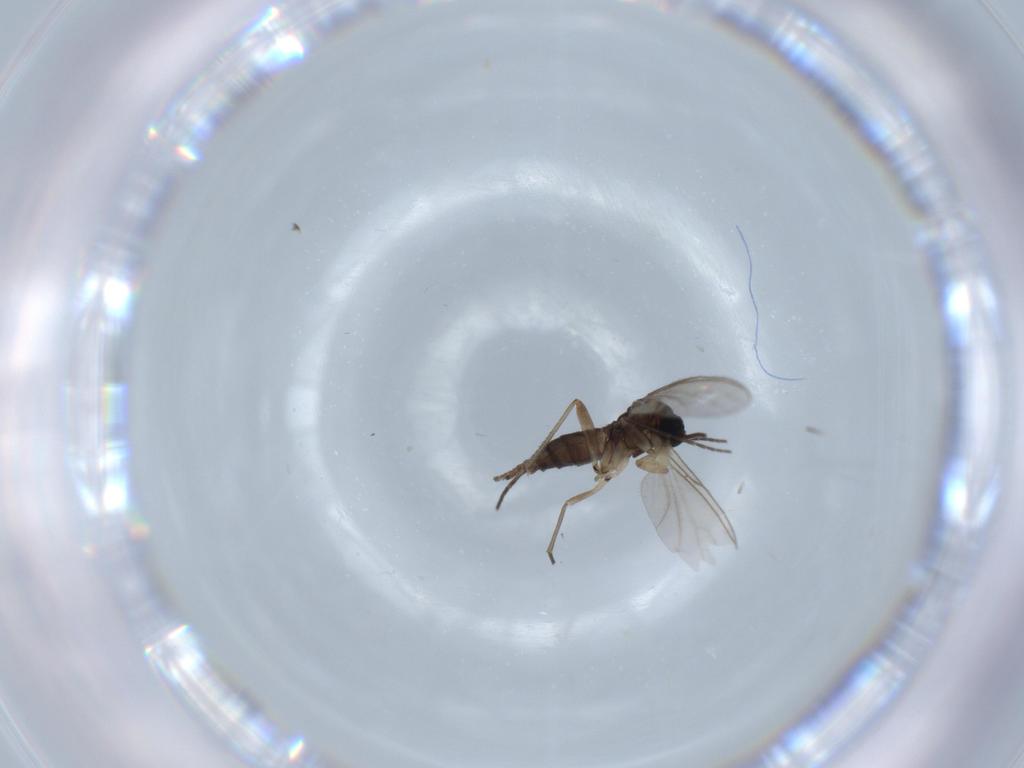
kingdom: Animalia
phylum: Arthropoda
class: Insecta
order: Diptera
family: Sciaridae
